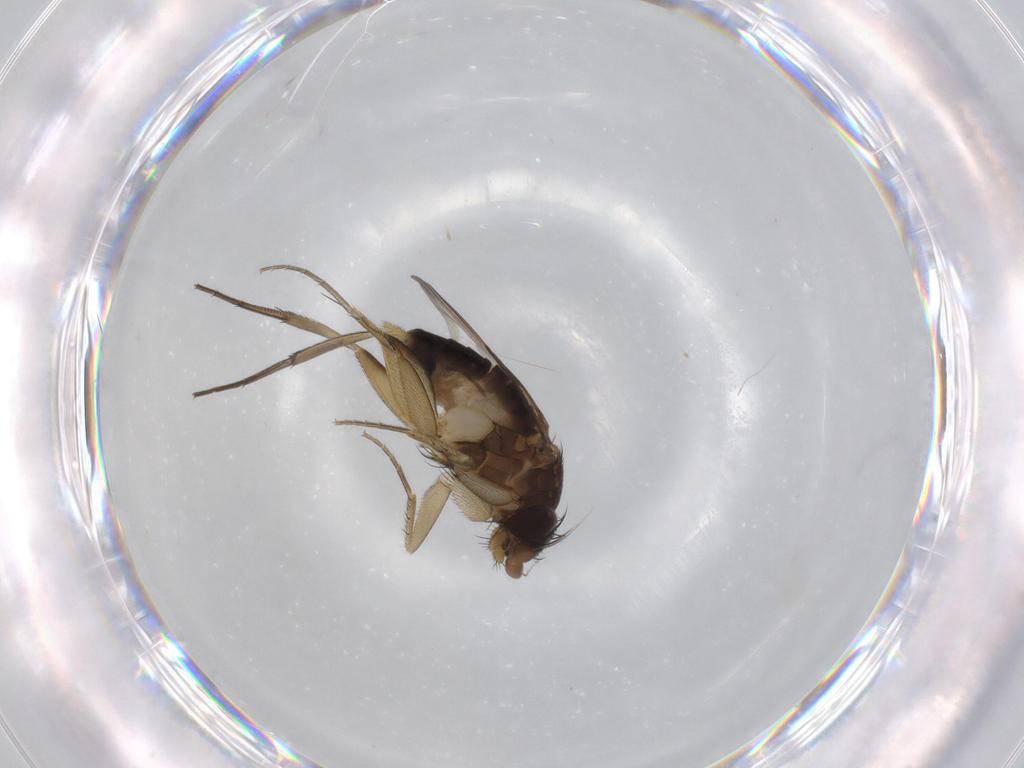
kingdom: Animalia
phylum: Arthropoda
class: Insecta
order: Diptera
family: Phoridae
